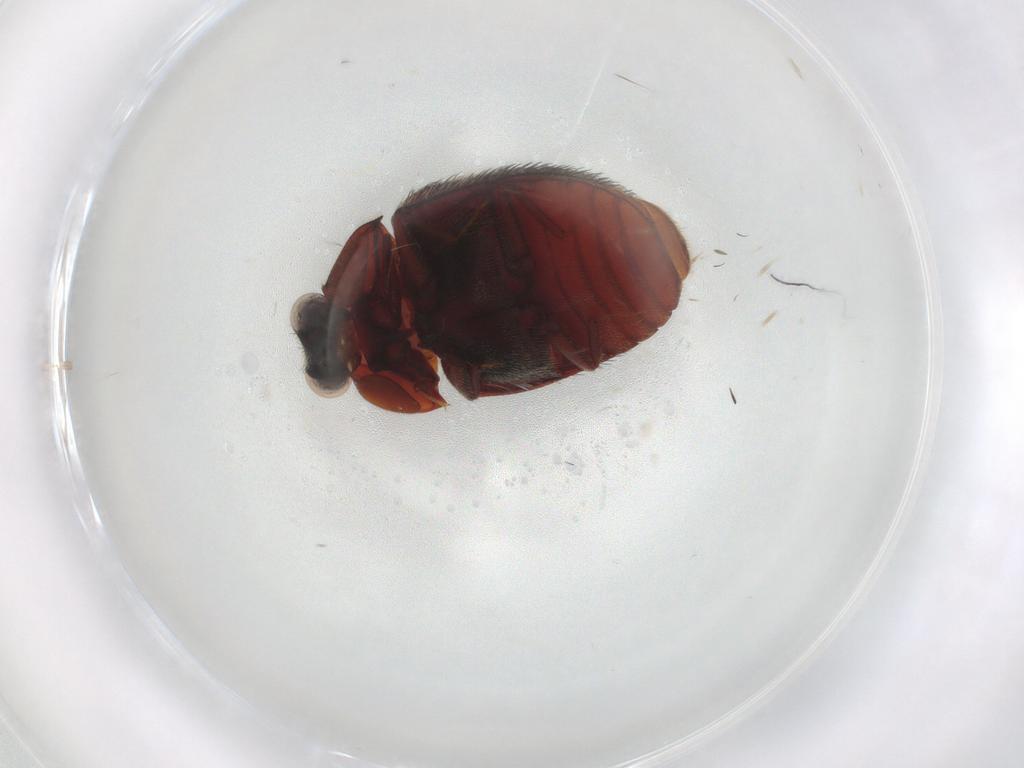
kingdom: Animalia
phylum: Arthropoda
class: Insecta
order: Coleoptera
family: Dermestidae
